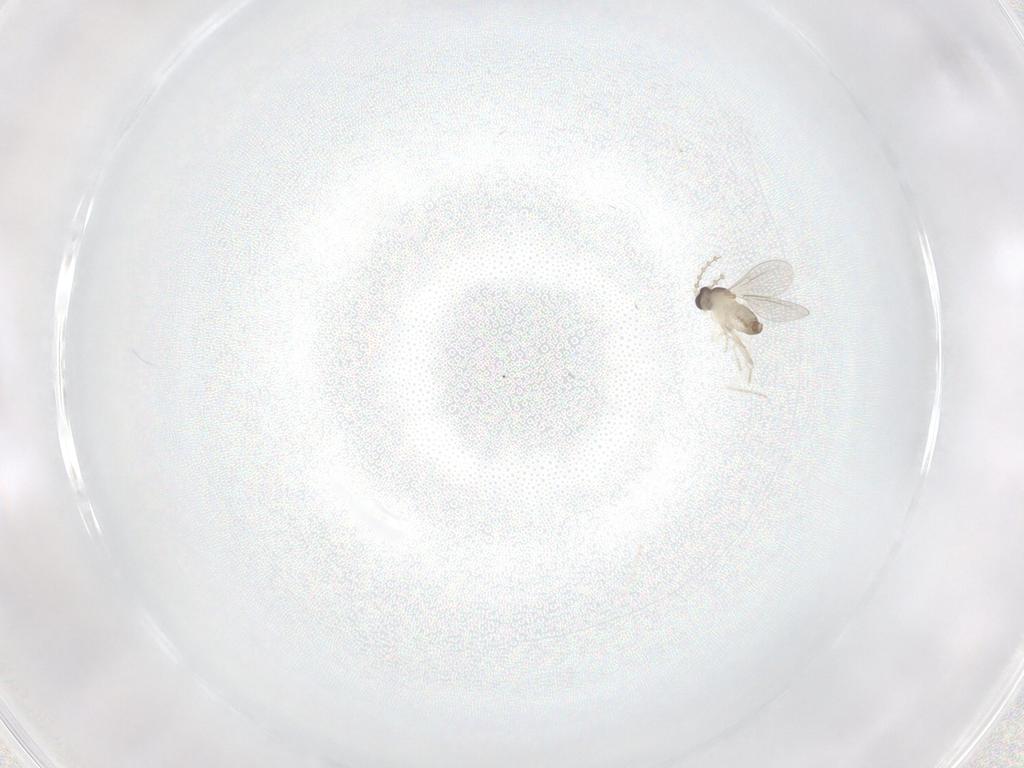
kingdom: Animalia
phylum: Arthropoda
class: Insecta
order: Diptera
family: Cecidomyiidae
